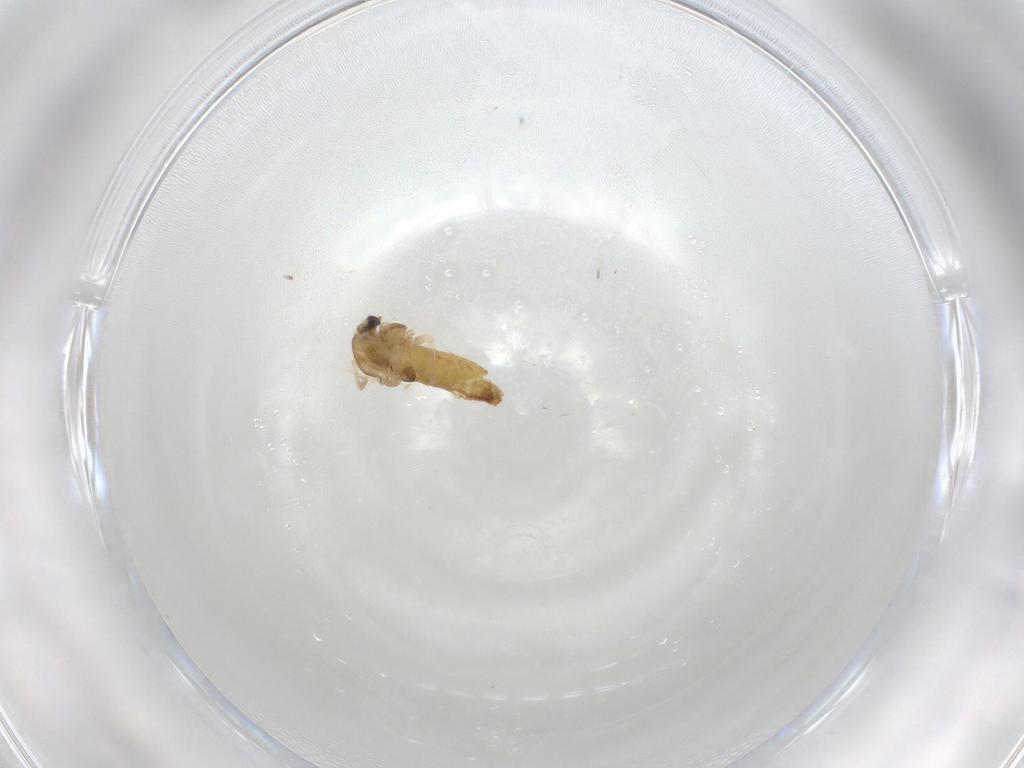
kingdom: Animalia
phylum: Arthropoda
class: Insecta
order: Diptera
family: Chironomidae
